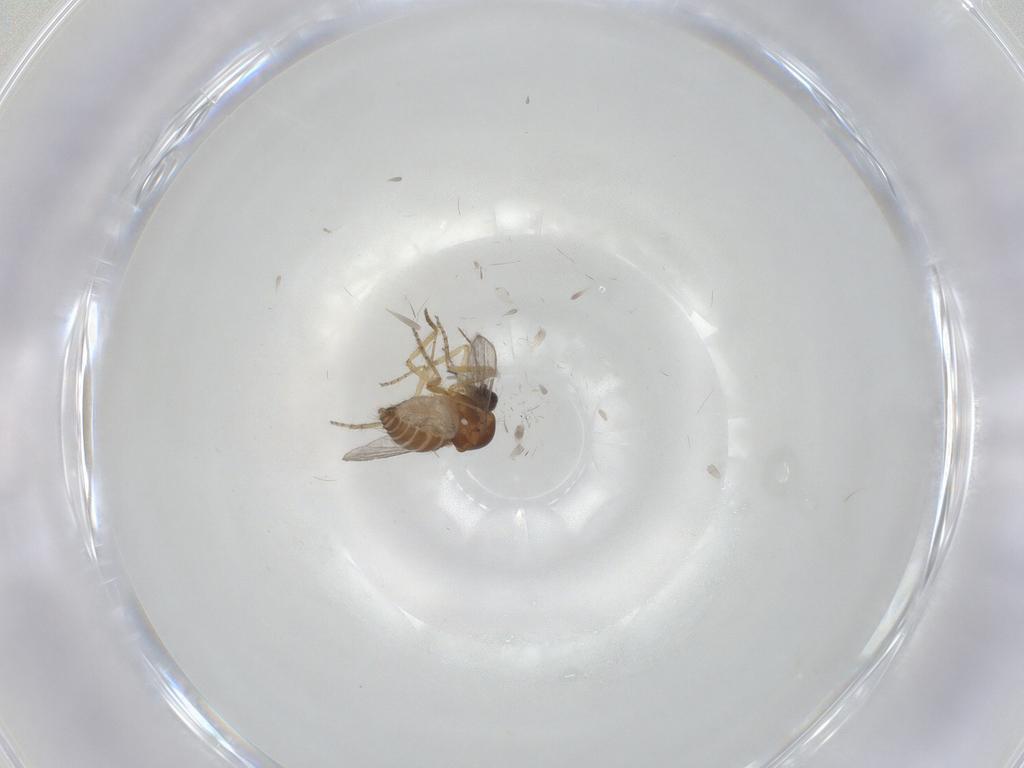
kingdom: Animalia
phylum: Arthropoda
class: Insecta
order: Diptera
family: Ceratopogonidae
